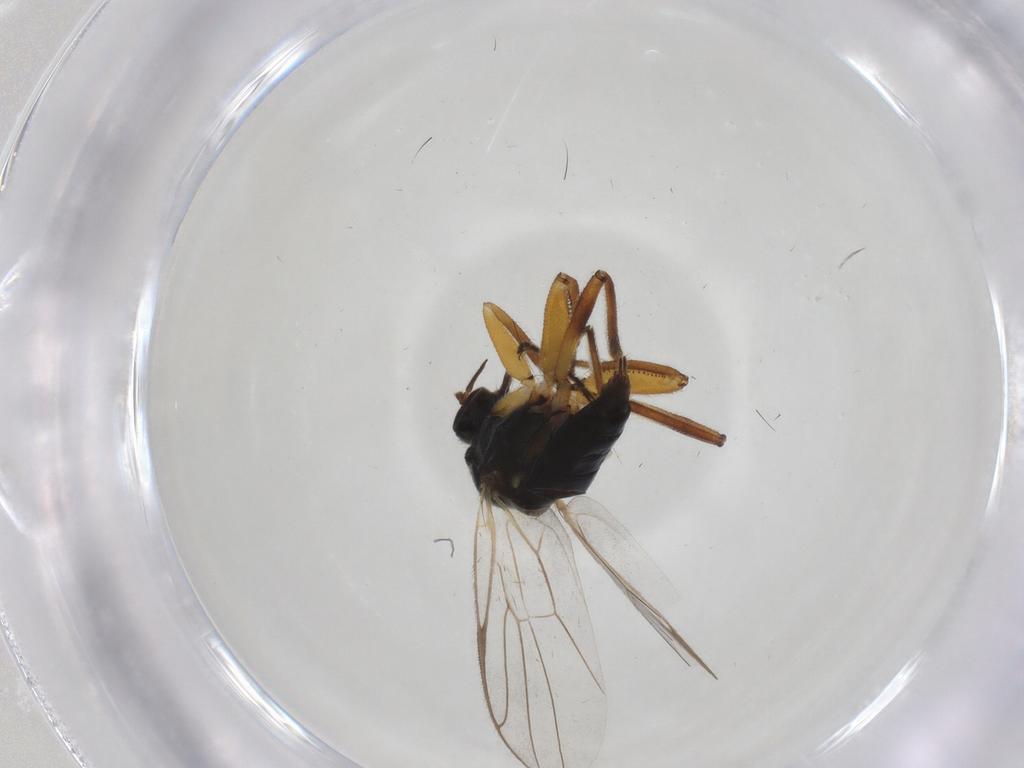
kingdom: Animalia
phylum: Arthropoda
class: Insecta
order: Diptera
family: Hybotidae
